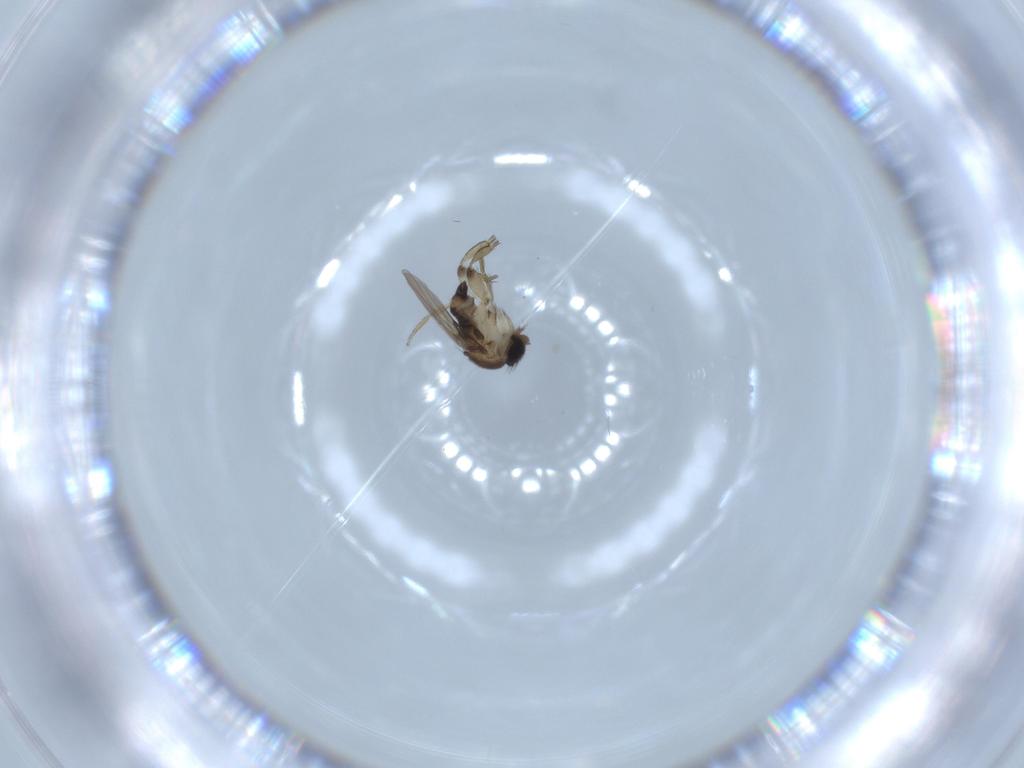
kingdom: Animalia
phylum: Arthropoda
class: Insecta
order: Diptera
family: Phoridae
